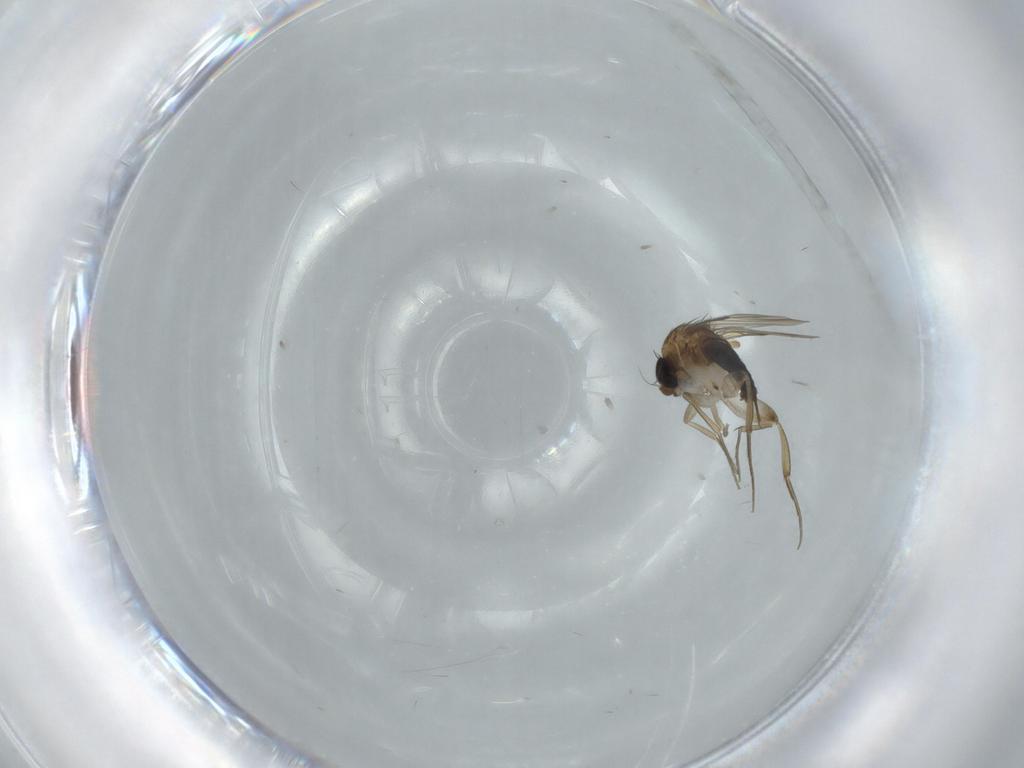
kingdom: Animalia
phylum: Arthropoda
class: Insecta
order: Diptera
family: Phoridae
